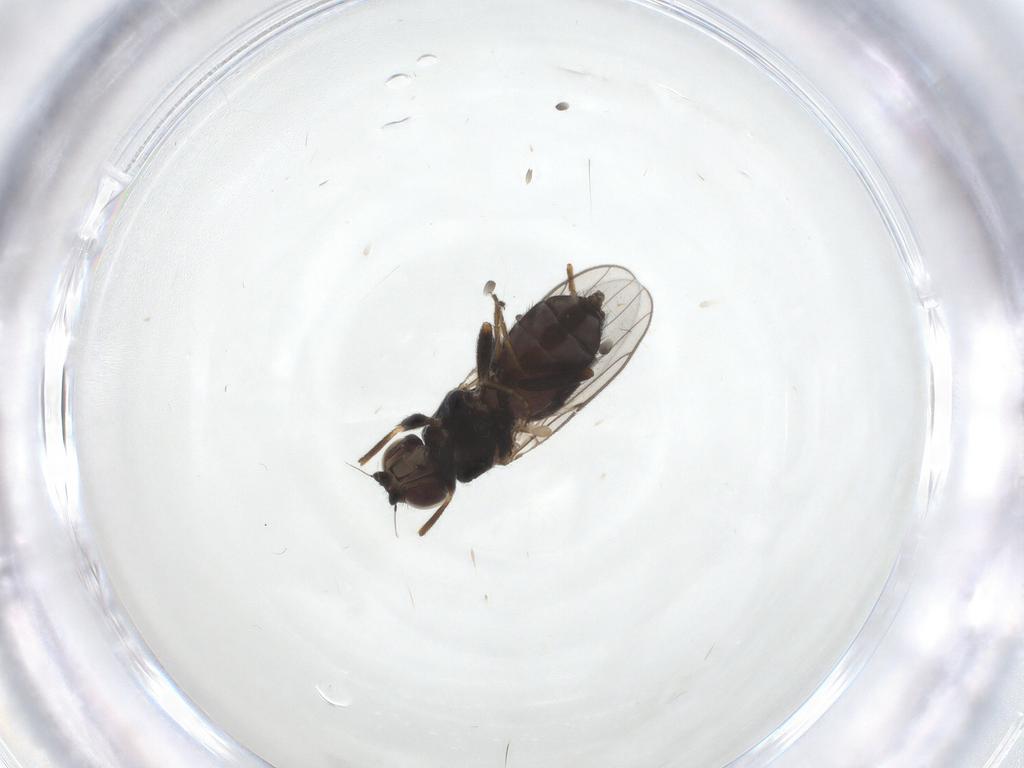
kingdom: Animalia
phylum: Arthropoda
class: Insecta
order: Diptera
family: Chloropidae
